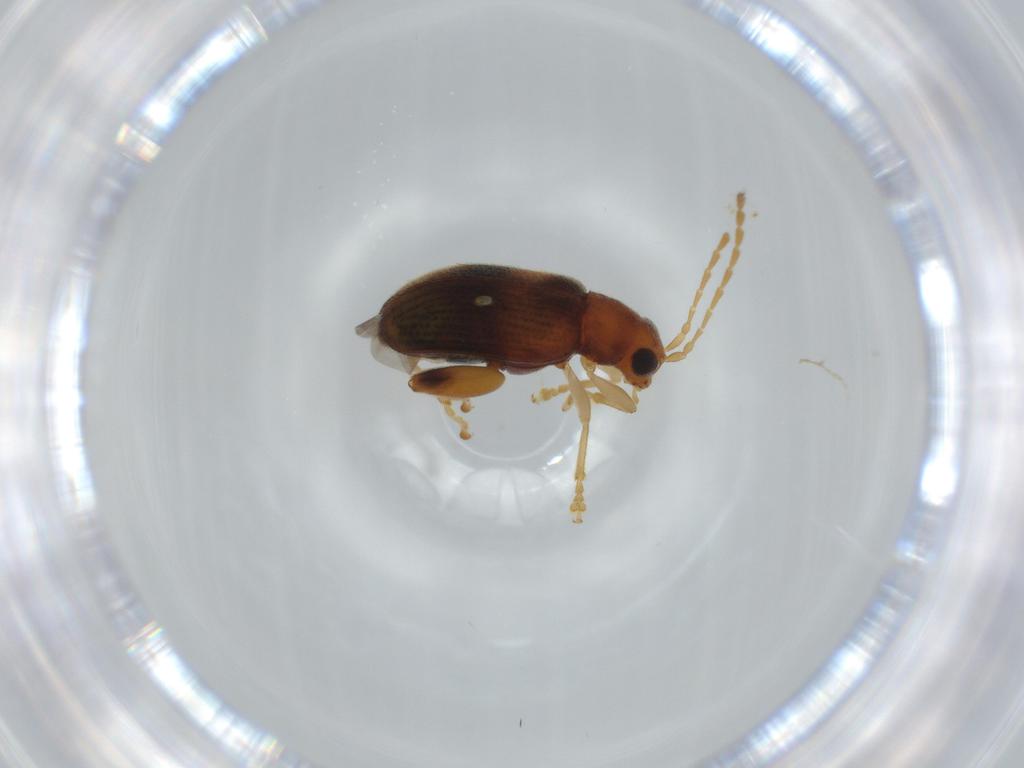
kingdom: Animalia
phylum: Arthropoda
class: Insecta
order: Coleoptera
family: Chrysomelidae
